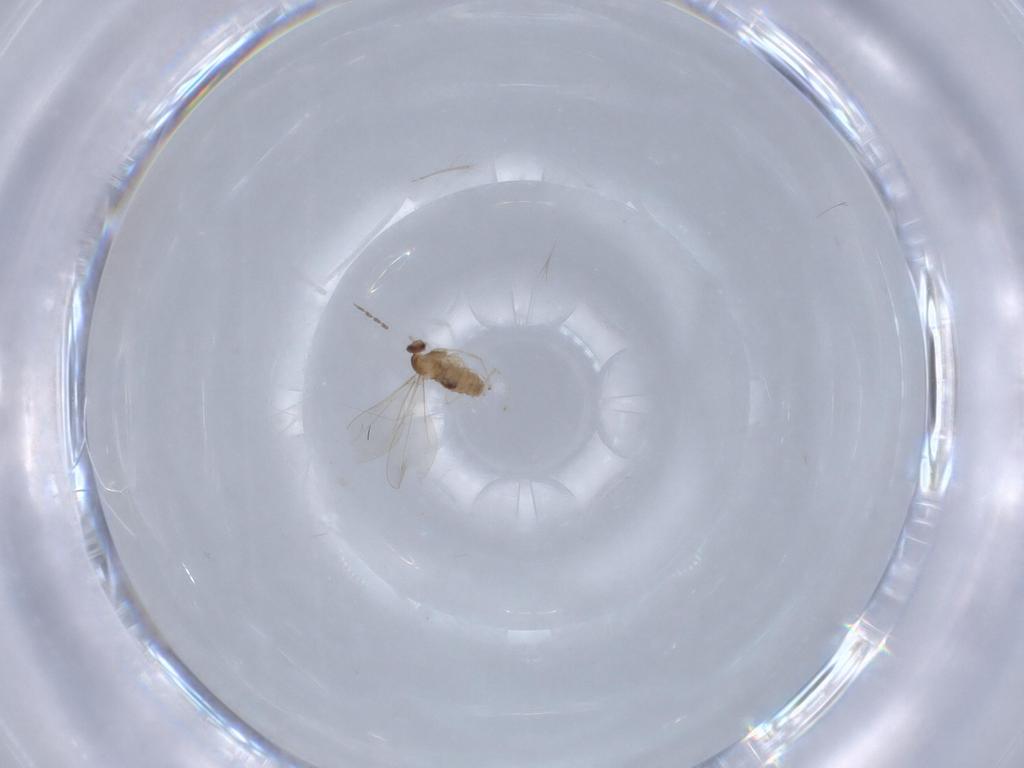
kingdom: Animalia
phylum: Arthropoda
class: Insecta
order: Diptera
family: Cecidomyiidae
